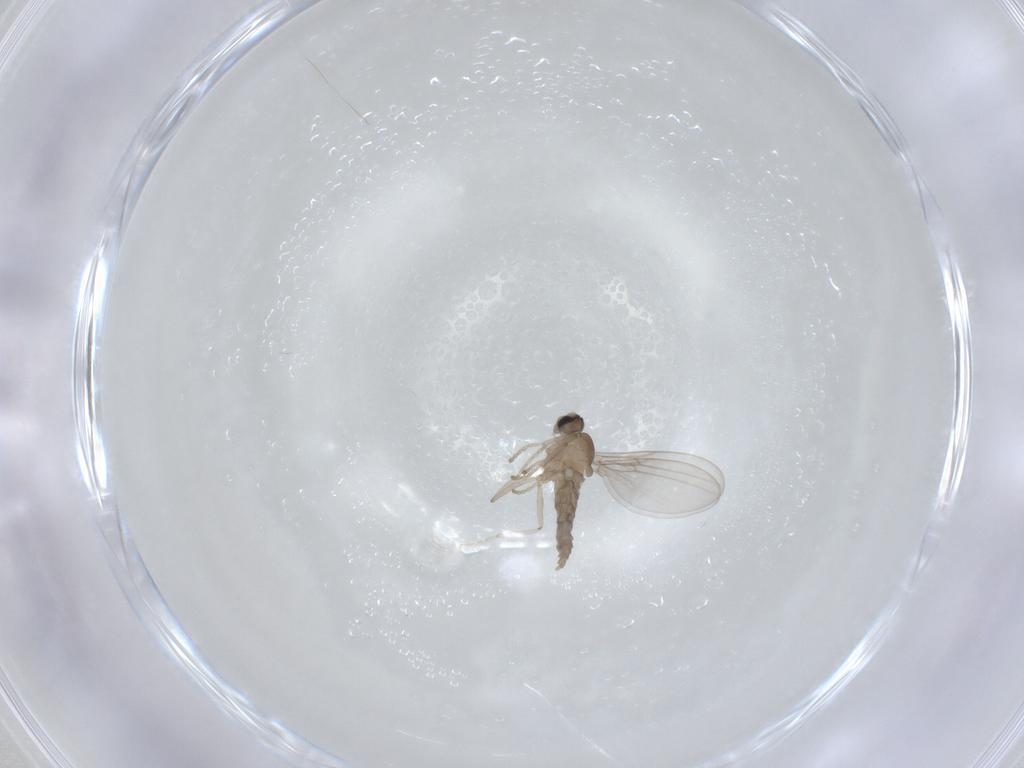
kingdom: Animalia
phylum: Arthropoda
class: Insecta
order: Diptera
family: Cecidomyiidae
